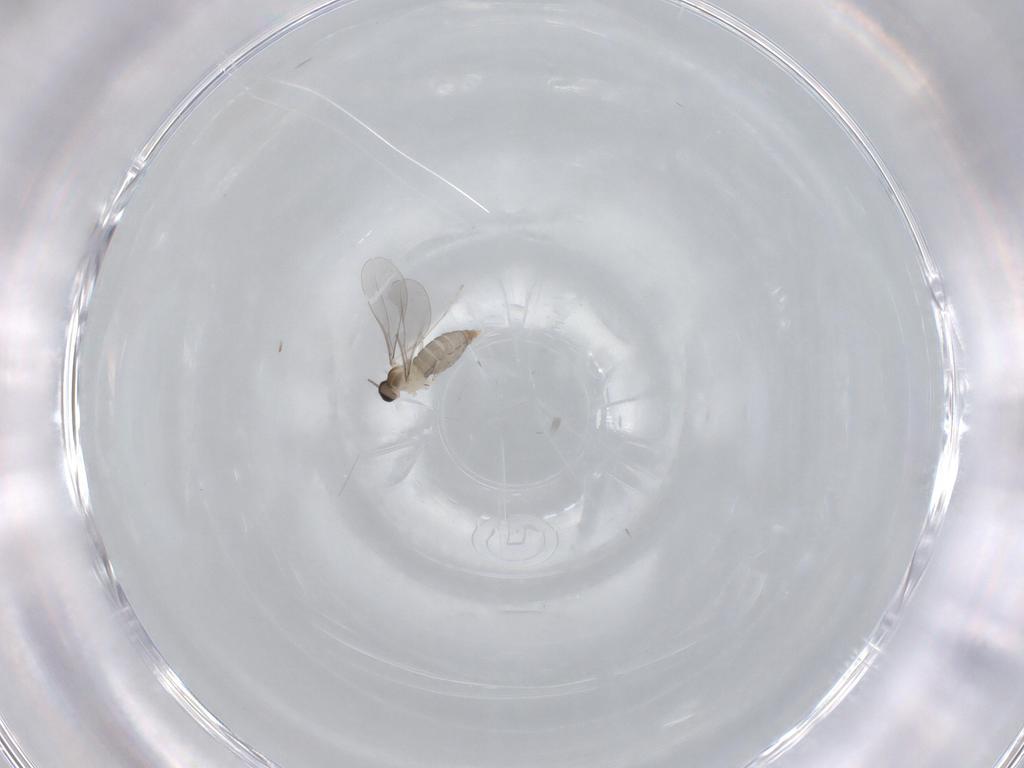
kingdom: Animalia
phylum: Arthropoda
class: Insecta
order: Diptera
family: Cecidomyiidae
